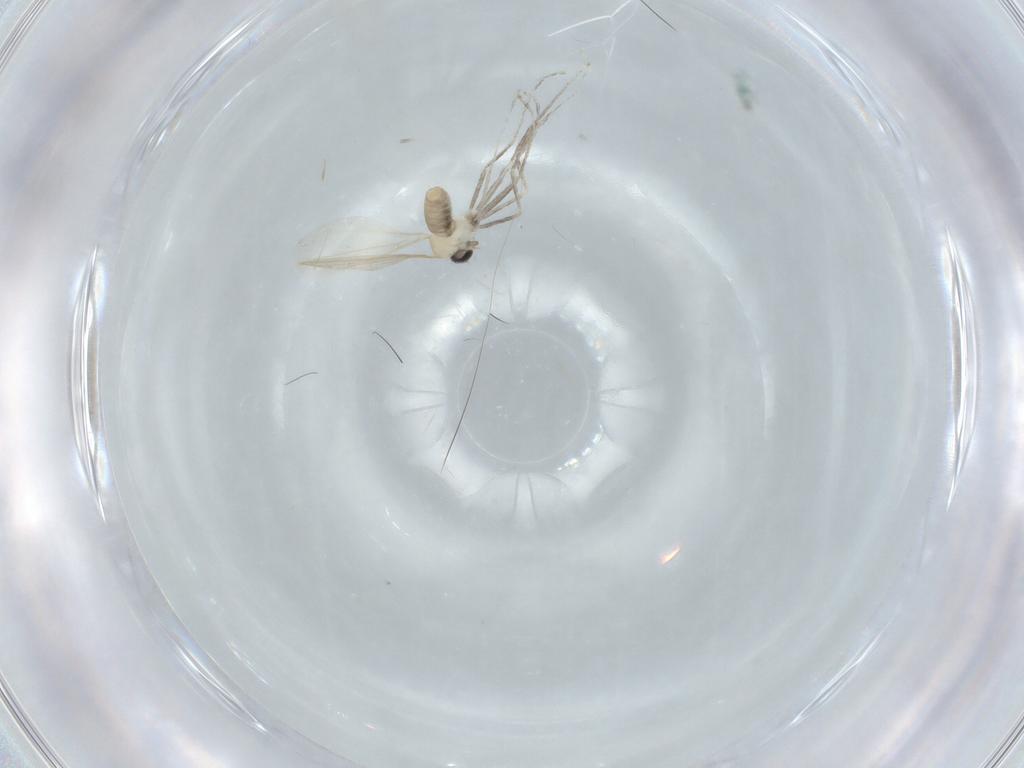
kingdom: Animalia
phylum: Arthropoda
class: Insecta
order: Diptera
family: Cecidomyiidae
